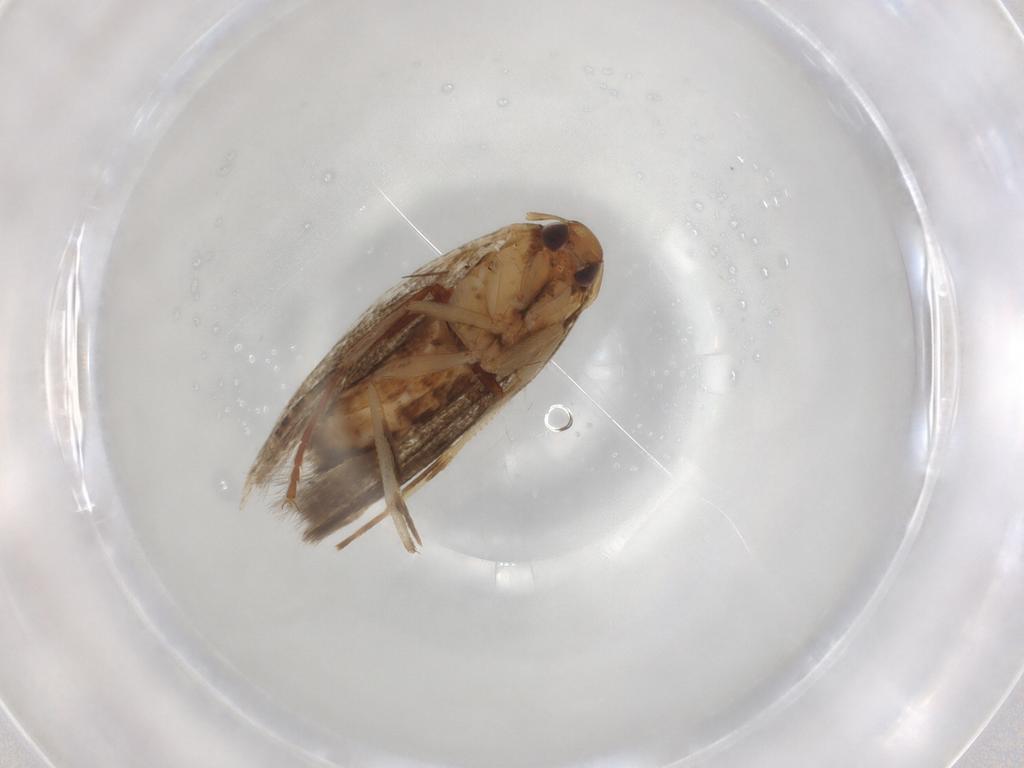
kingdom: Animalia
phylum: Arthropoda
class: Insecta
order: Lepidoptera
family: Cosmopterigidae
